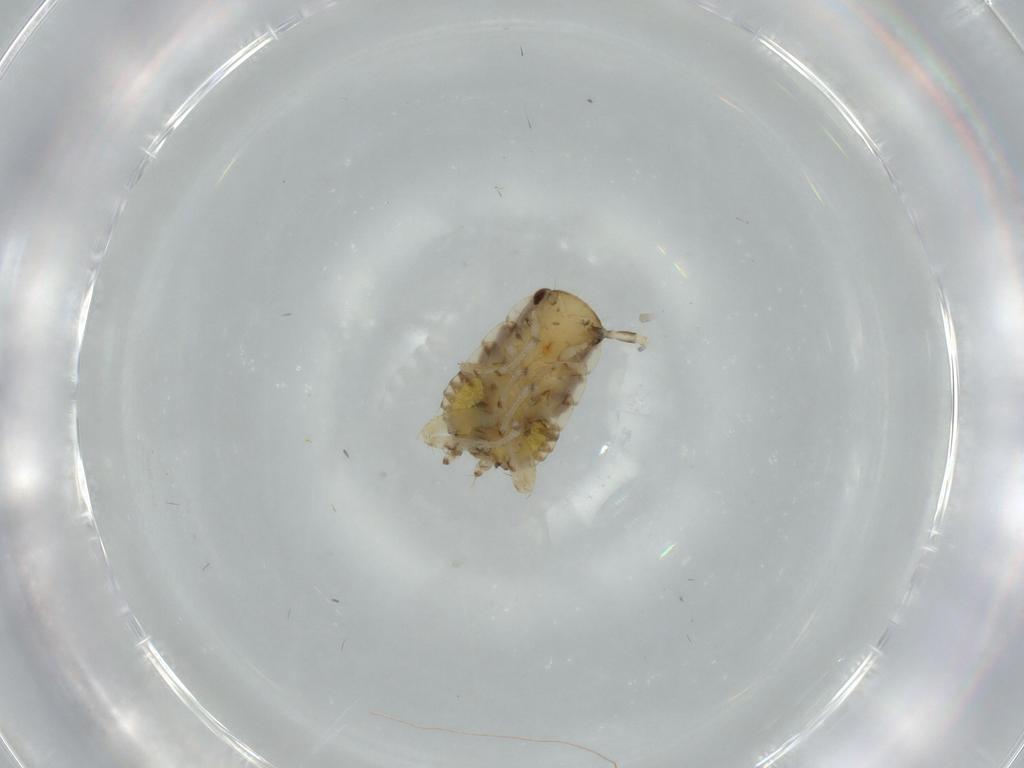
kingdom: Animalia
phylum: Arthropoda
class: Insecta
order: Blattodea
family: Ectobiidae
